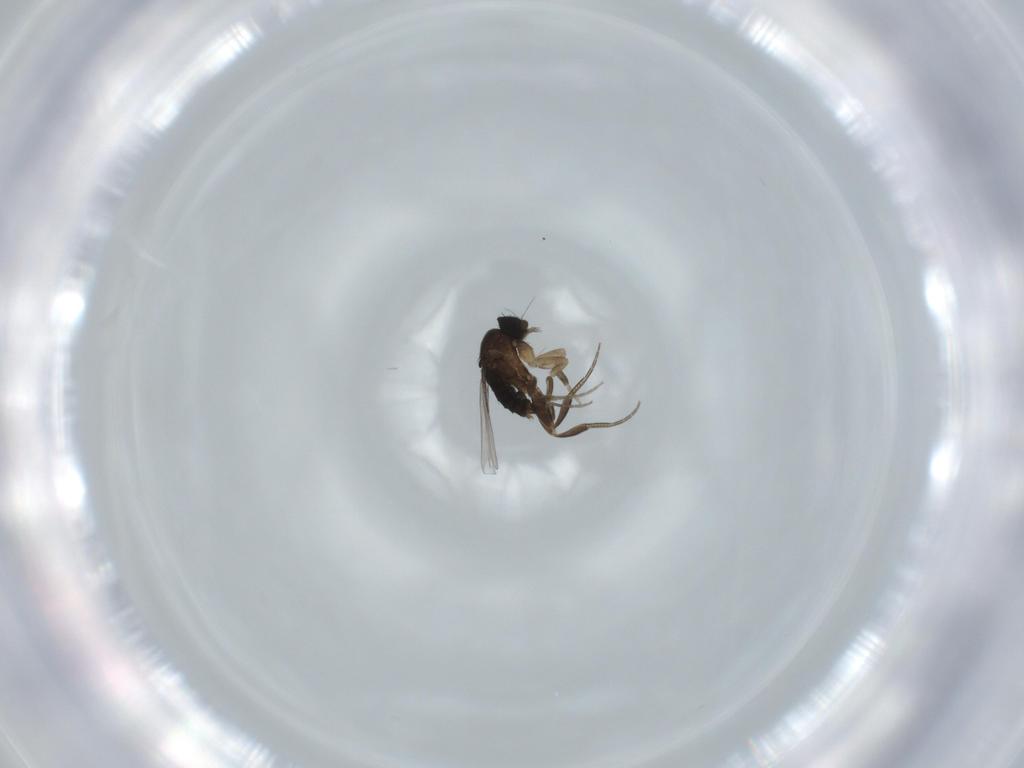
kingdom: Animalia
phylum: Arthropoda
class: Insecta
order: Diptera
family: Phoridae
